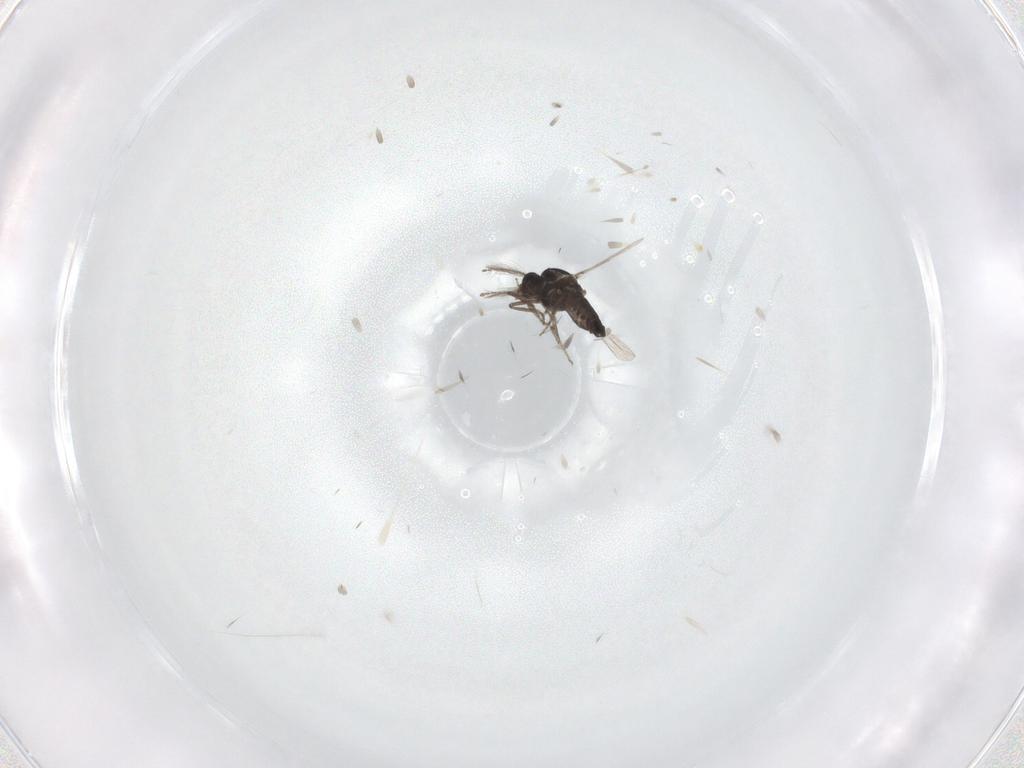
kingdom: Animalia
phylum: Arthropoda
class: Insecta
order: Diptera
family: Ceratopogonidae
